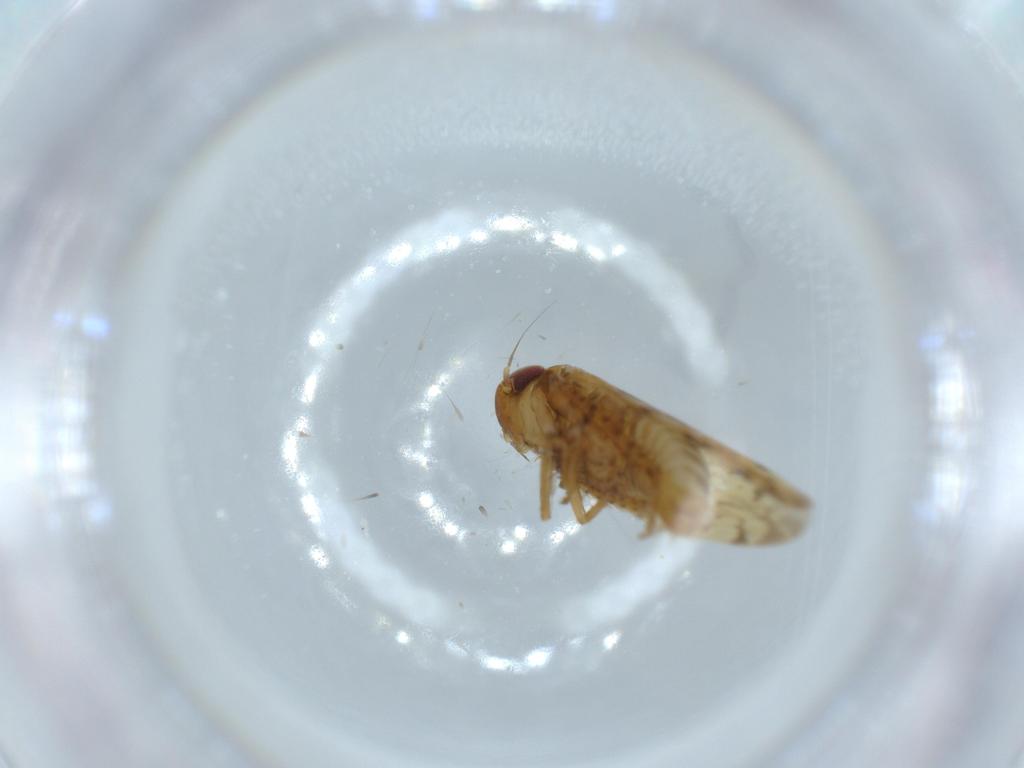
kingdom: Animalia
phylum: Arthropoda
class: Insecta
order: Hemiptera
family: Cicadellidae
